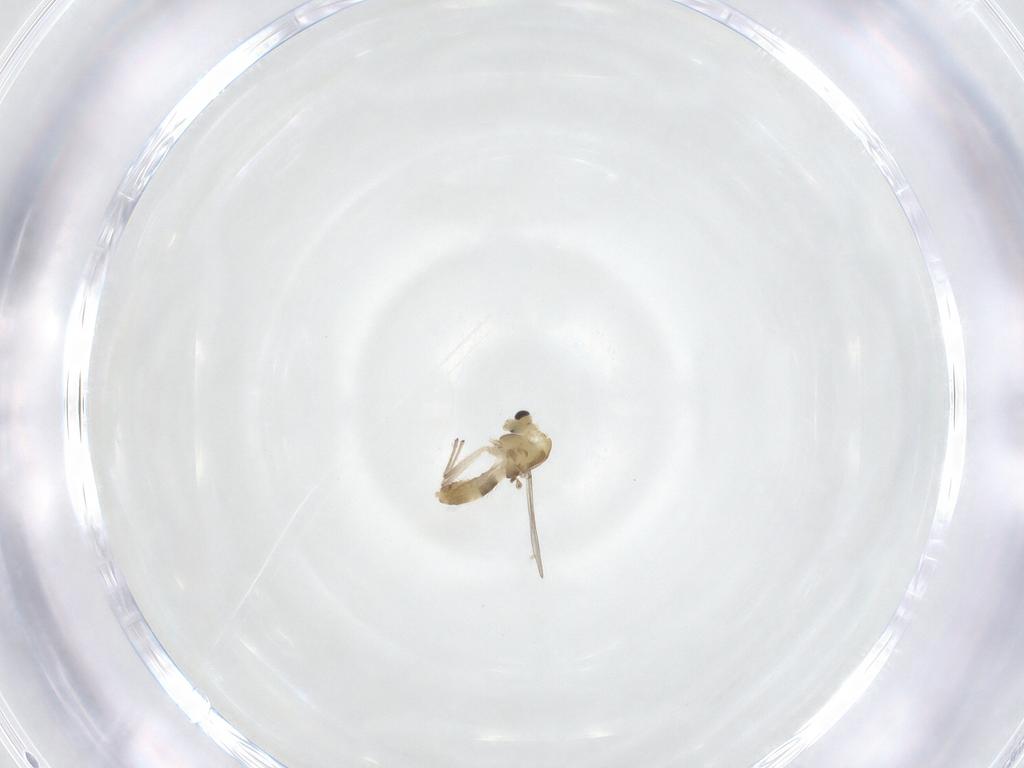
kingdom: Animalia
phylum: Arthropoda
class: Insecta
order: Diptera
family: Chironomidae
